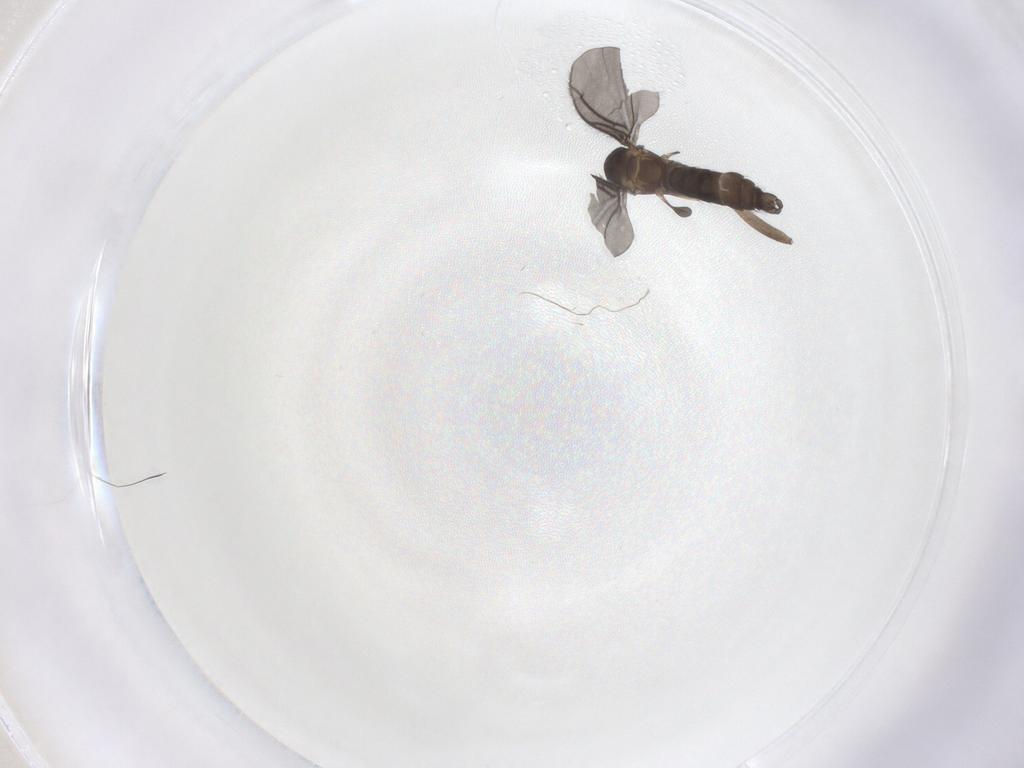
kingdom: Animalia
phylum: Arthropoda
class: Insecta
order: Diptera
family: Sciaridae
